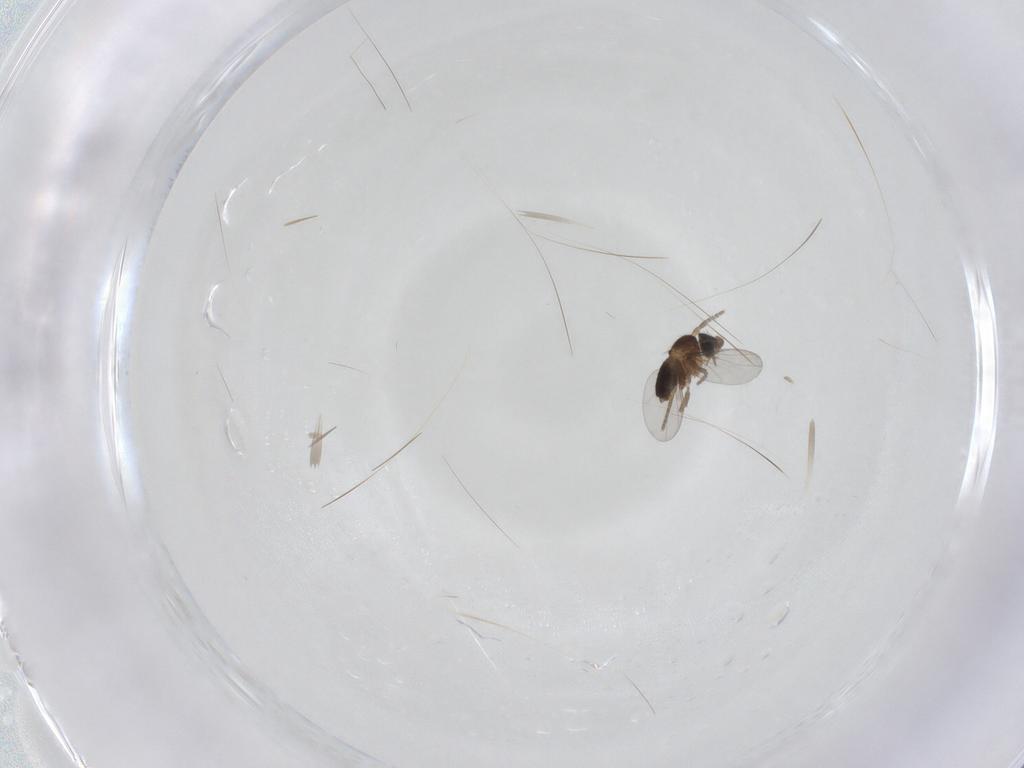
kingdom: Animalia
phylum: Arthropoda
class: Insecta
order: Diptera
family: Phoridae
